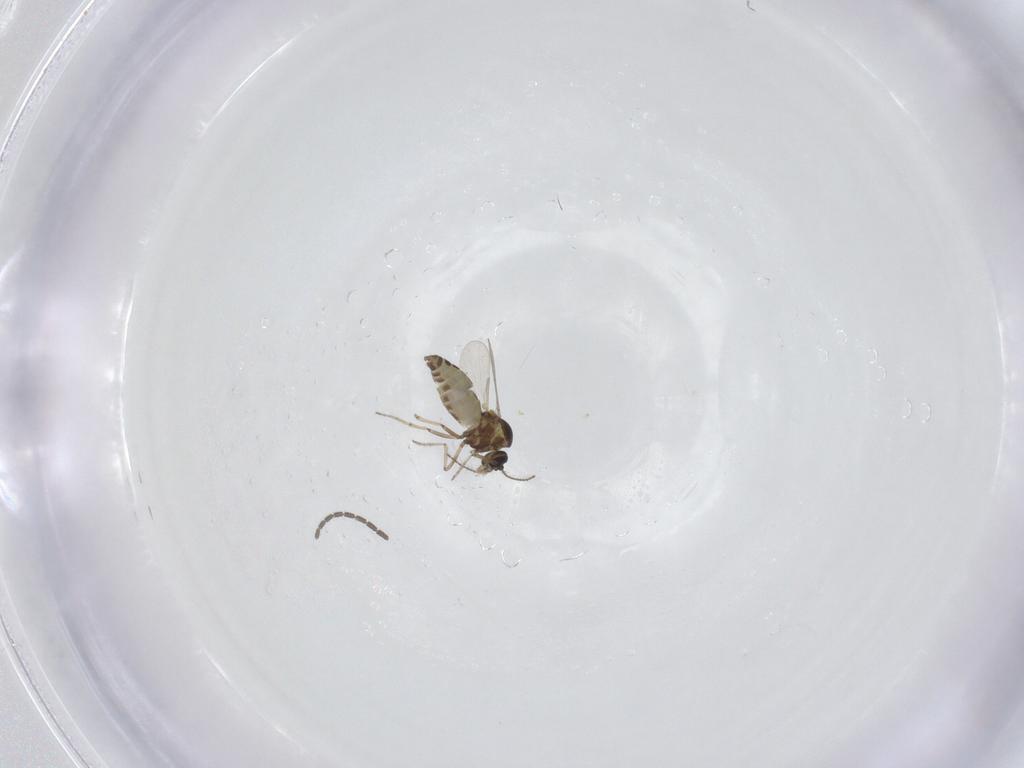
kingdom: Animalia
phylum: Arthropoda
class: Insecta
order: Diptera
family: Ceratopogonidae
